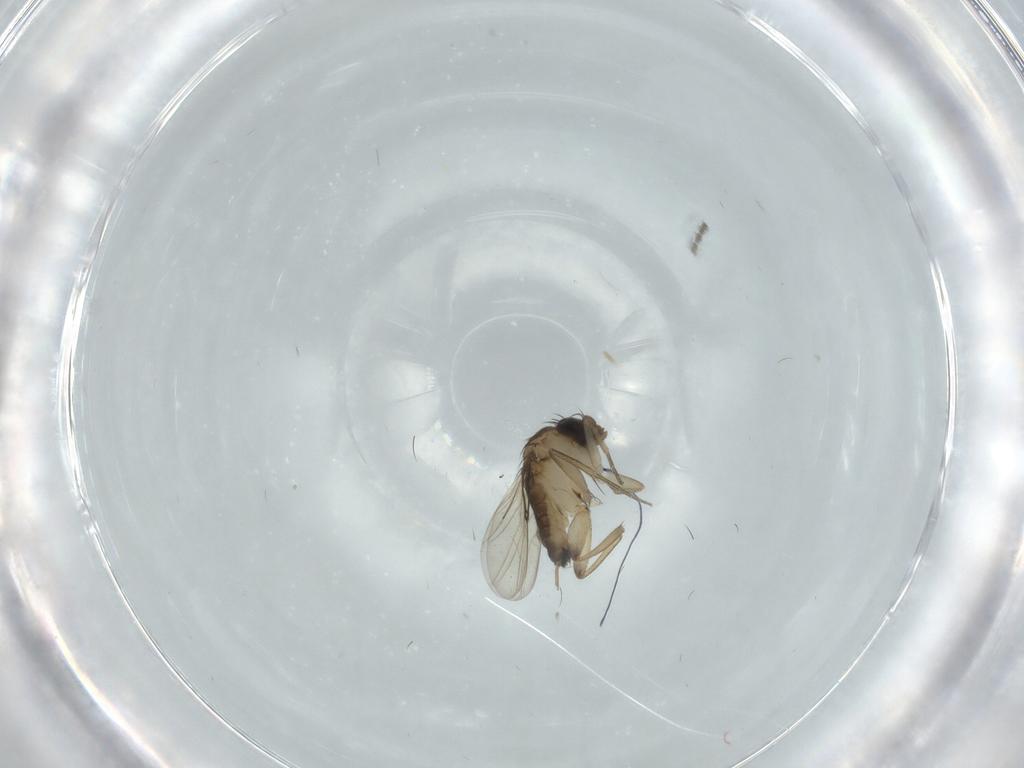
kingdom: Animalia
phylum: Arthropoda
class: Insecta
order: Diptera
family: Phoridae
